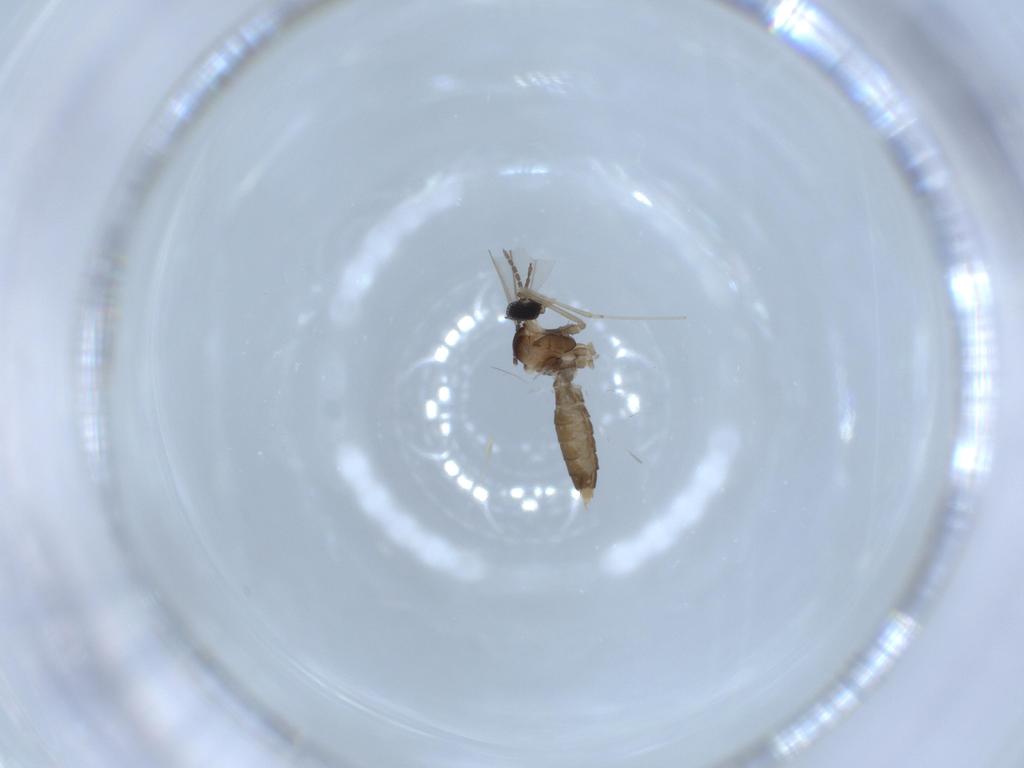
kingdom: Animalia
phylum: Arthropoda
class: Insecta
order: Diptera
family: Cecidomyiidae
